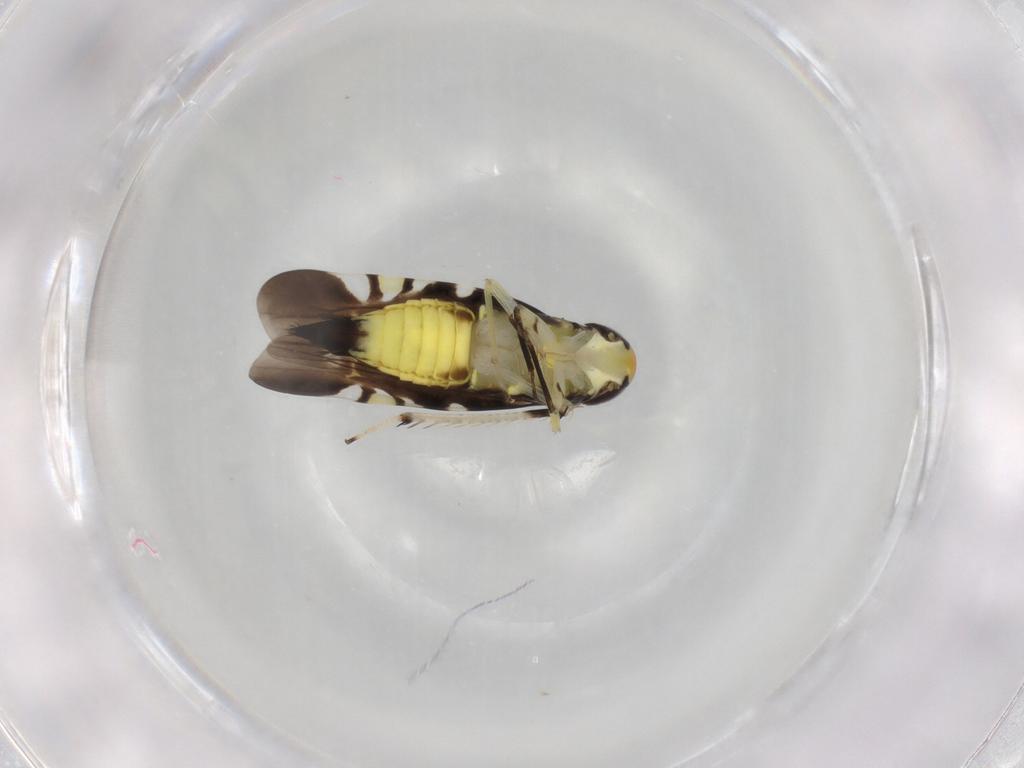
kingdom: Animalia
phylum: Arthropoda
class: Insecta
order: Hemiptera
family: Cicadellidae
